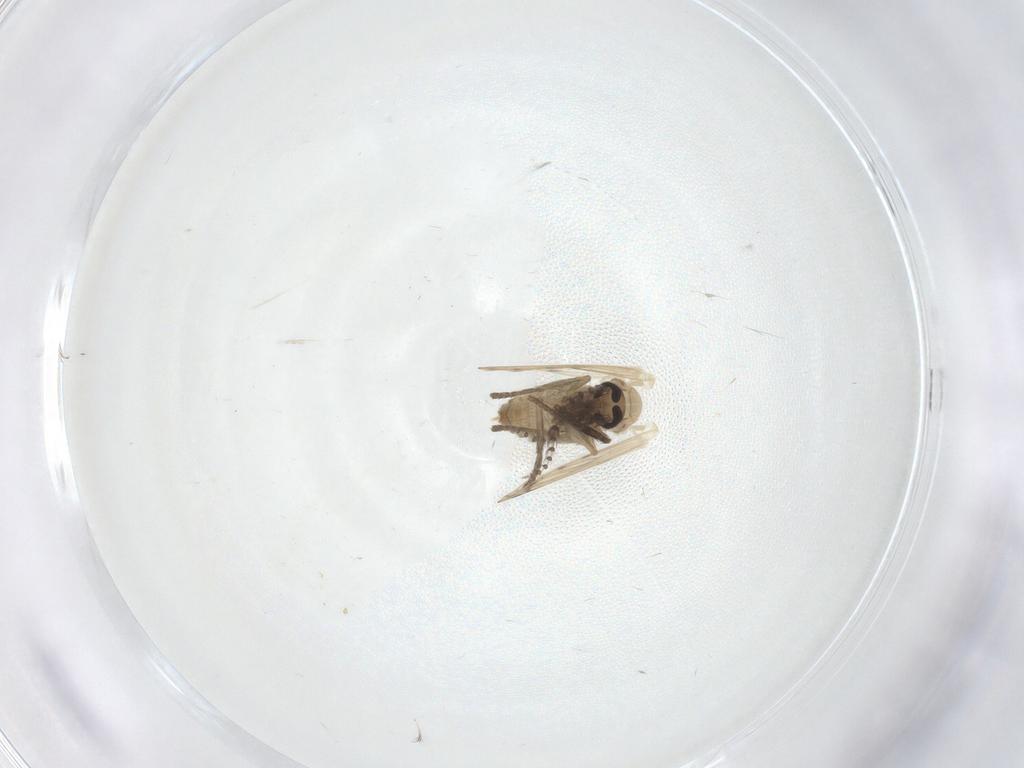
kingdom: Animalia
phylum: Arthropoda
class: Insecta
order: Diptera
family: Psychodidae
